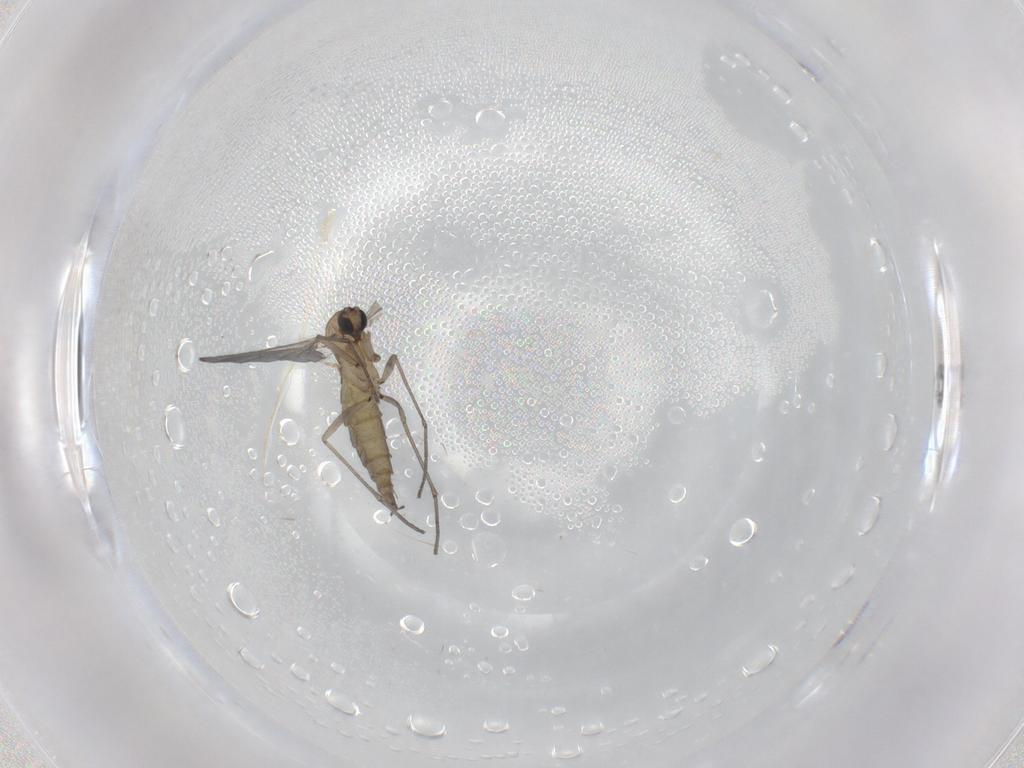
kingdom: Animalia
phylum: Arthropoda
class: Insecta
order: Diptera
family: Sciaridae
